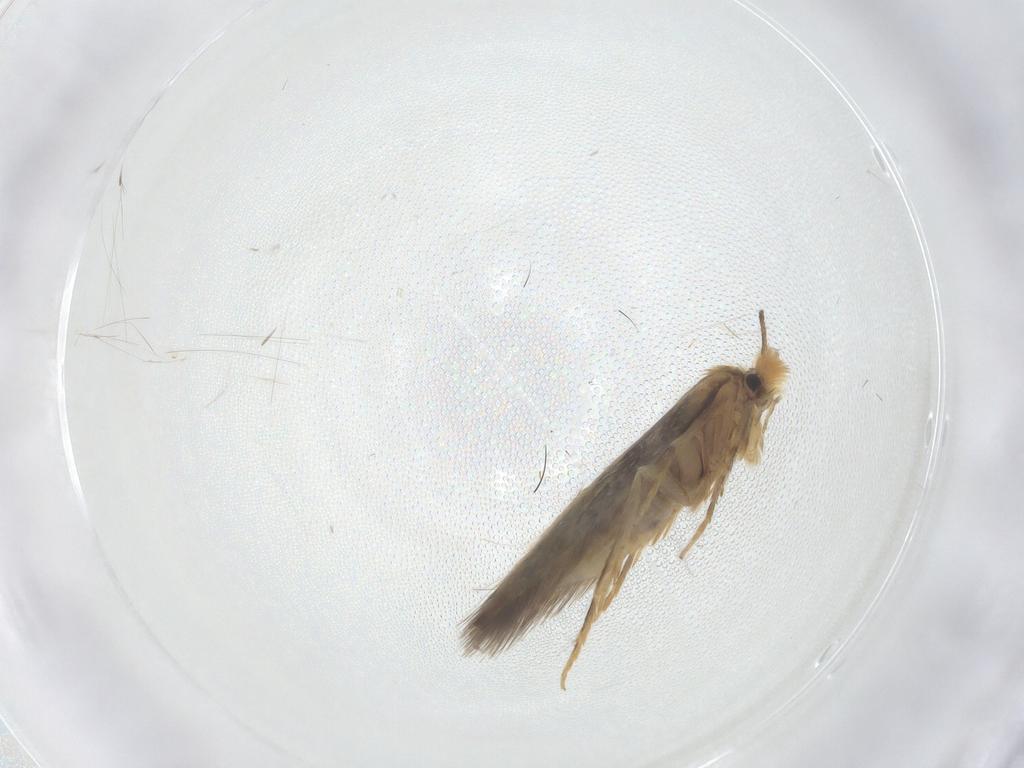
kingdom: Animalia
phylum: Arthropoda
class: Insecta
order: Lepidoptera
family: Nepticulidae
